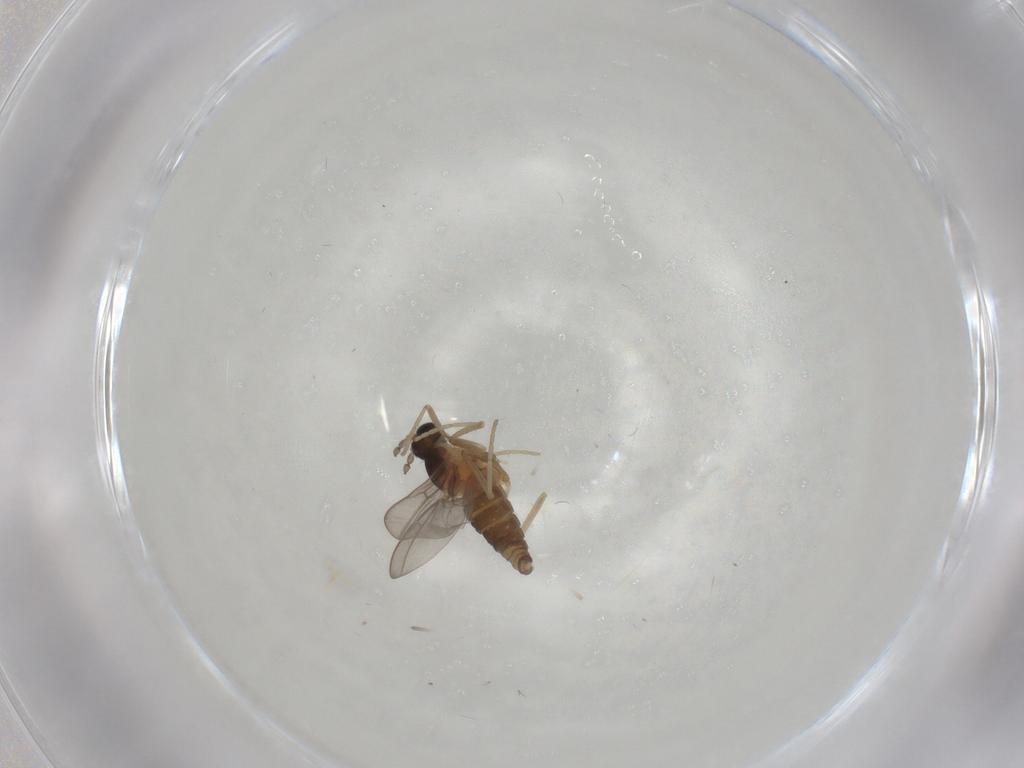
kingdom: Animalia
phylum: Arthropoda
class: Insecta
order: Diptera
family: Cecidomyiidae
